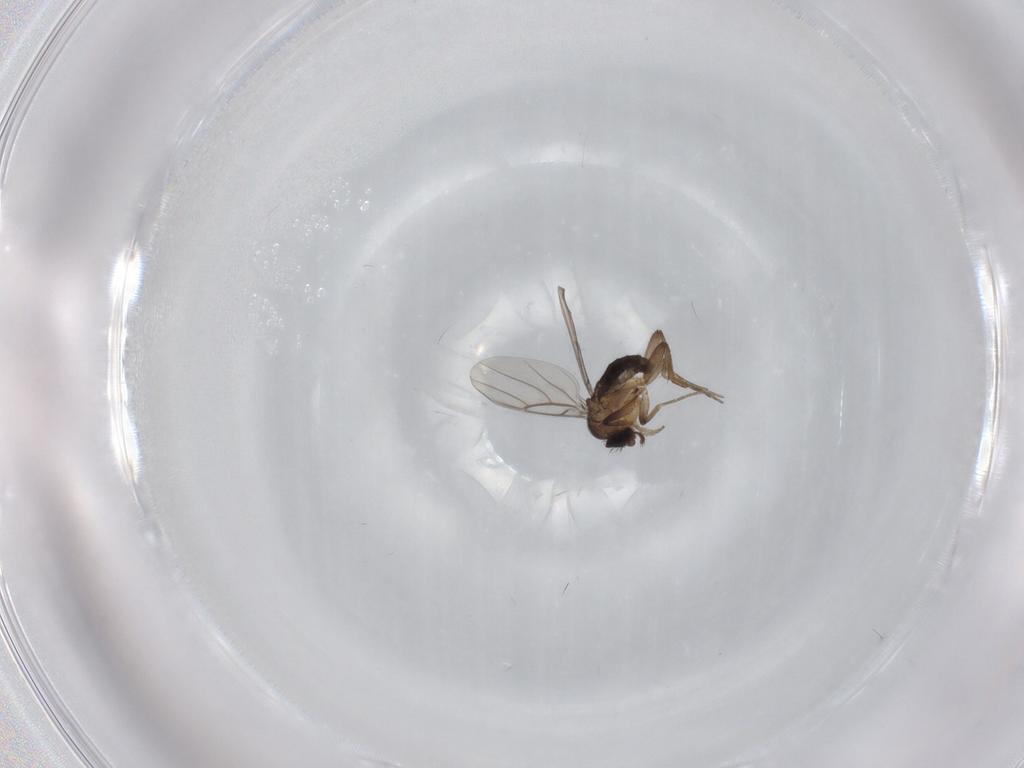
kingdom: Animalia
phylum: Arthropoda
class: Insecta
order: Diptera
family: Phoridae
